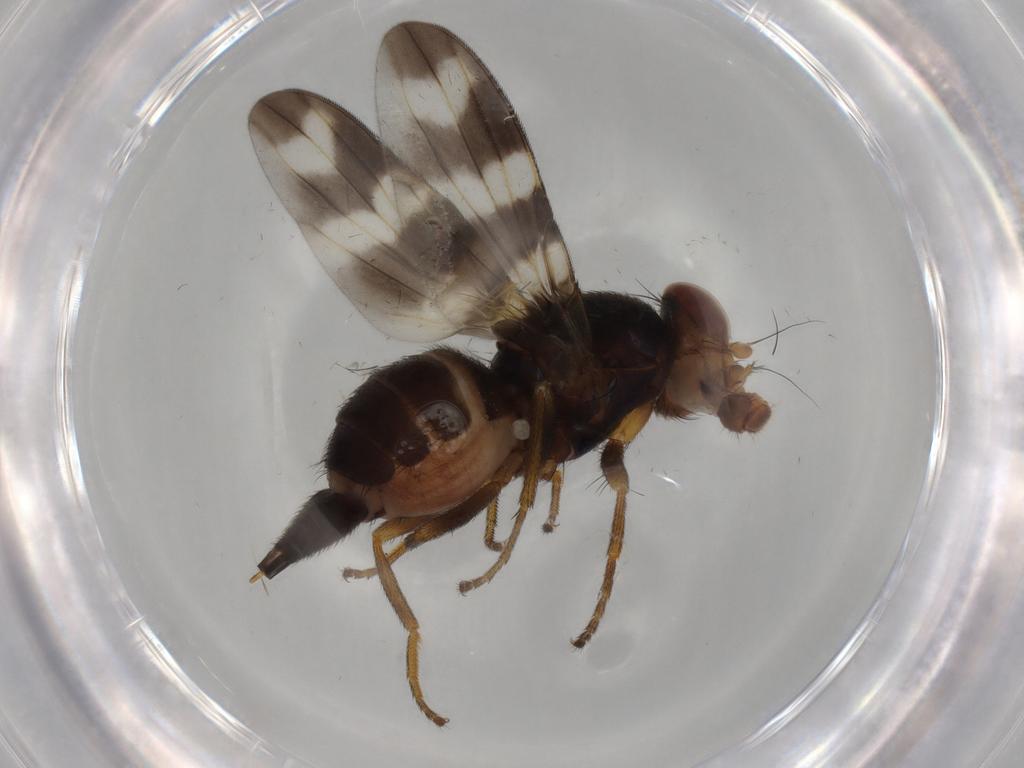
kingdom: Animalia
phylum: Arthropoda
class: Insecta
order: Diptera
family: Ulidiidae
